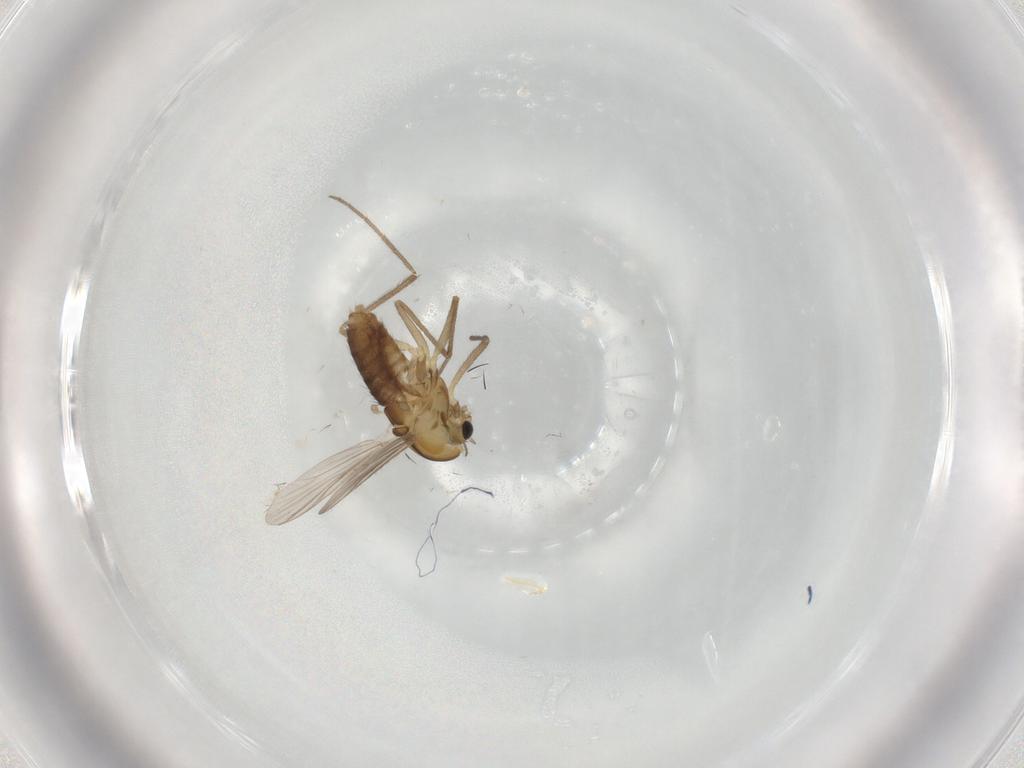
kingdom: Animalia
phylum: Arthropoda
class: Insecta
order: Diptera
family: Chironomidae
